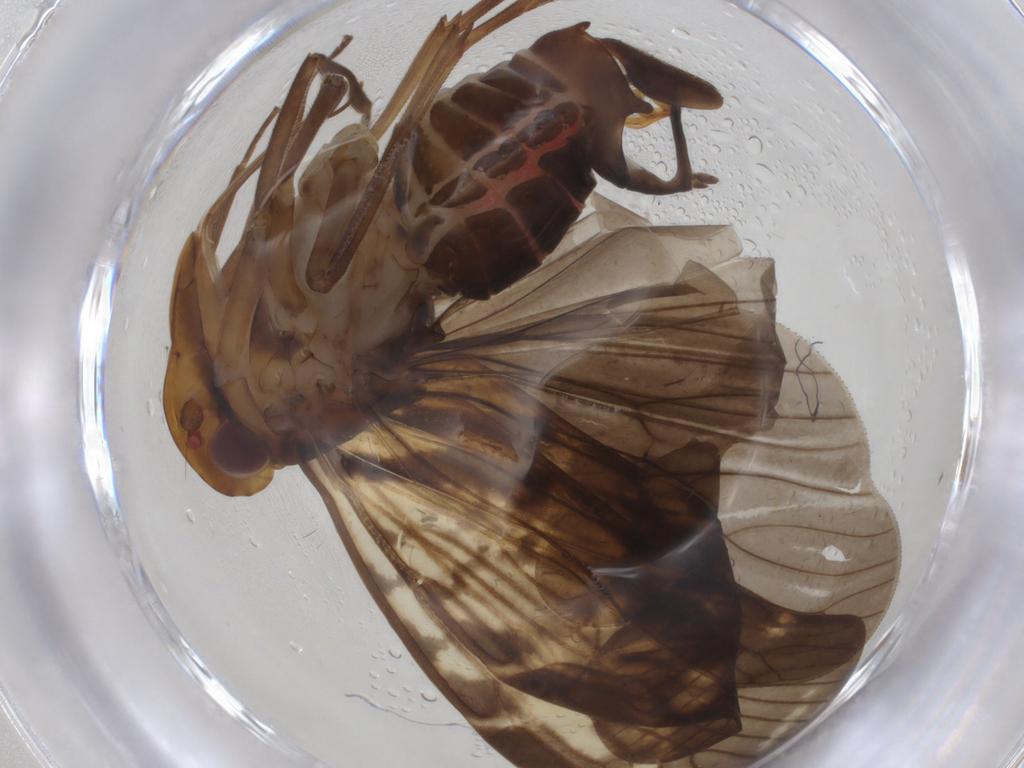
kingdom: Animalia
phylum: Arthropoda
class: Insecta
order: Hemiptera
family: Cixiidae
